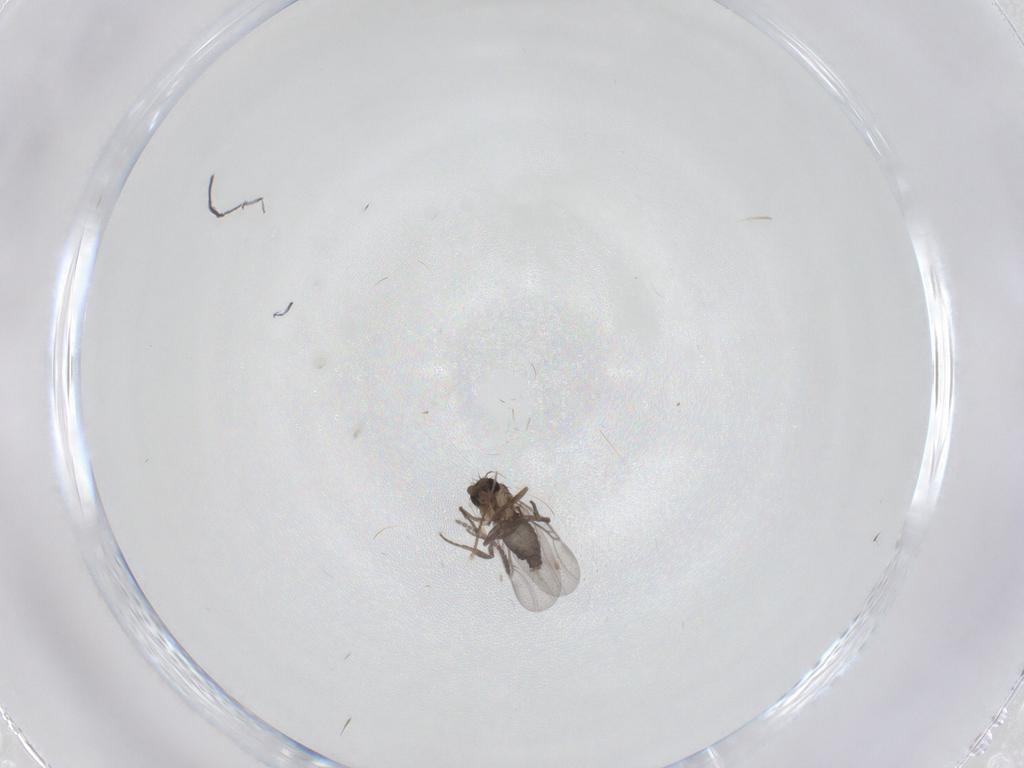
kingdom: Animalia
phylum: Arthropoda
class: Insecta
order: Diptera
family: Chironomidae
